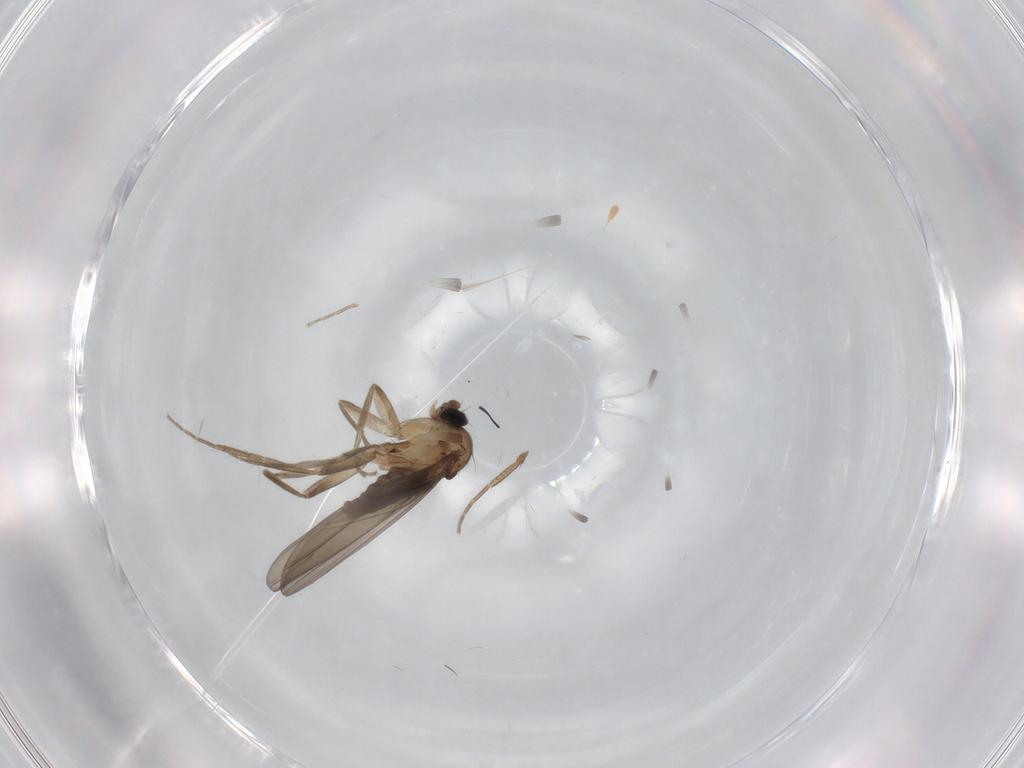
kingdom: Animalia
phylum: Arthropoda
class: Insecta
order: Diptera
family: Phoridae
